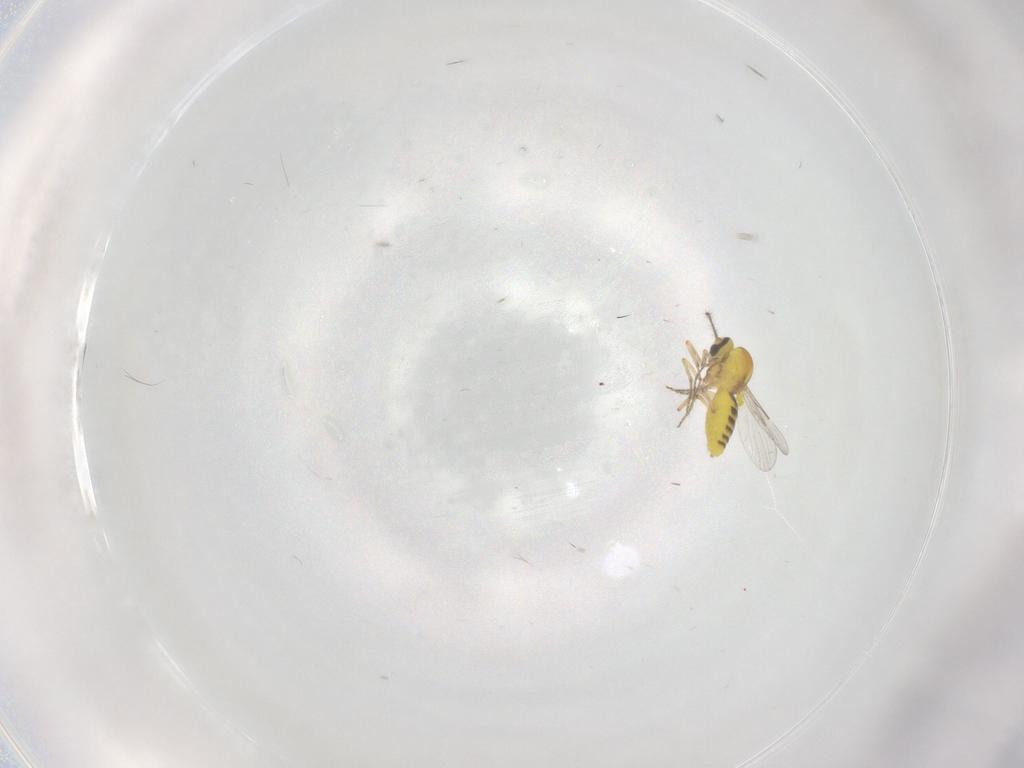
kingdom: Animalia
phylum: Arthropoda
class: Insecta
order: Diptera
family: Ceratopogonidae
